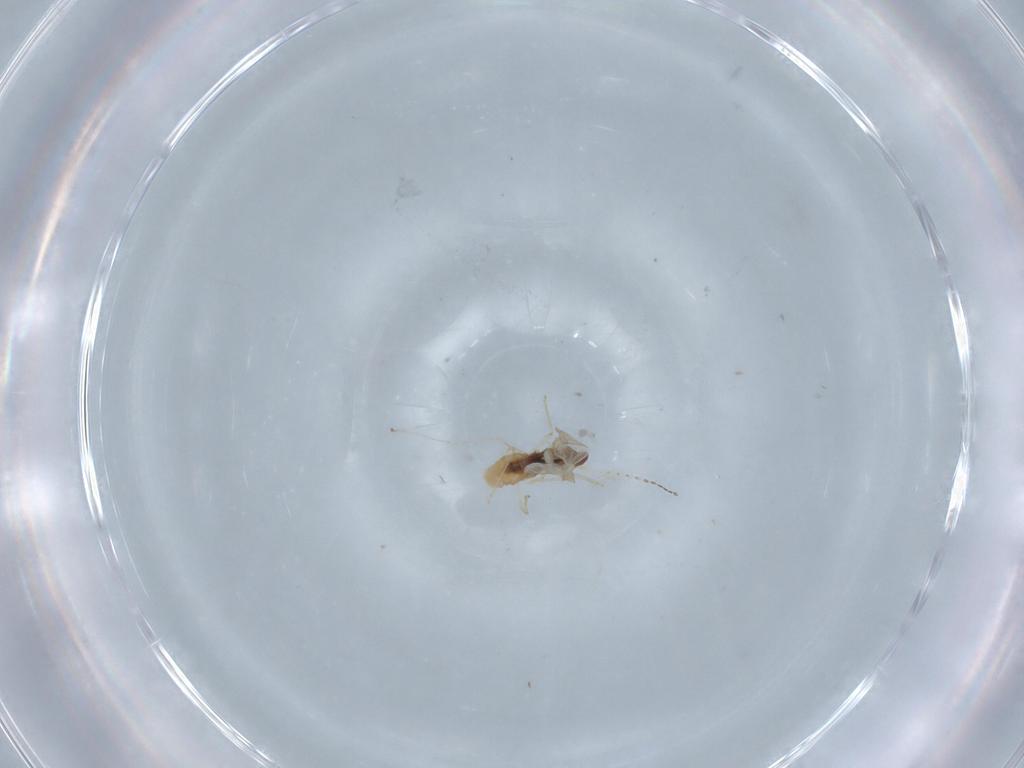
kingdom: Animalia
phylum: Arthropoda
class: Insecta
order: Diptera
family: Cecidomyiidae
